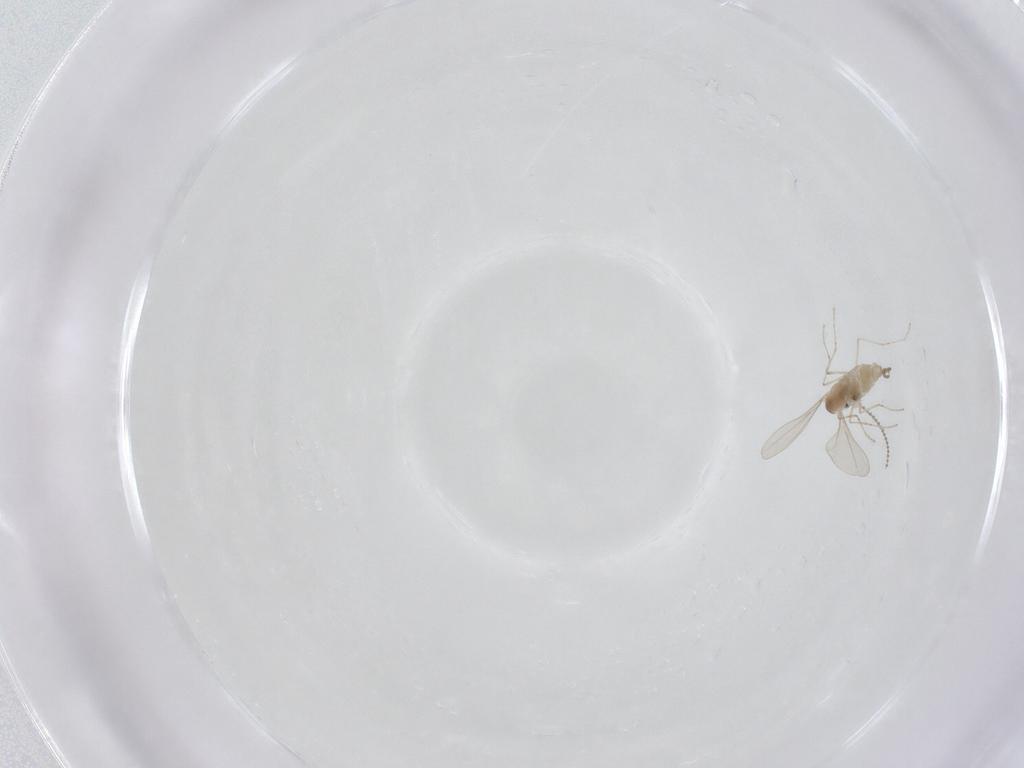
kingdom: Animalia
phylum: Arthropoda
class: Insecta
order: Diptera
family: Cecidomyiidae
